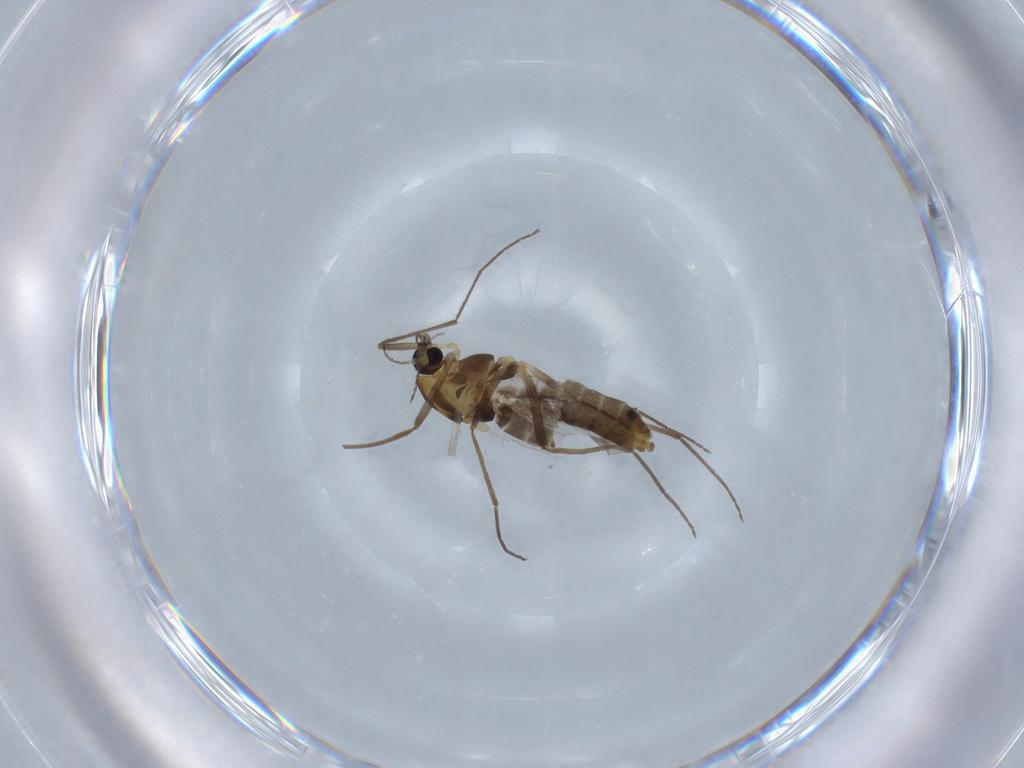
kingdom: Animalia
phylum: Arthropoda
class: Insecta
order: Diptera
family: Chironomidae
